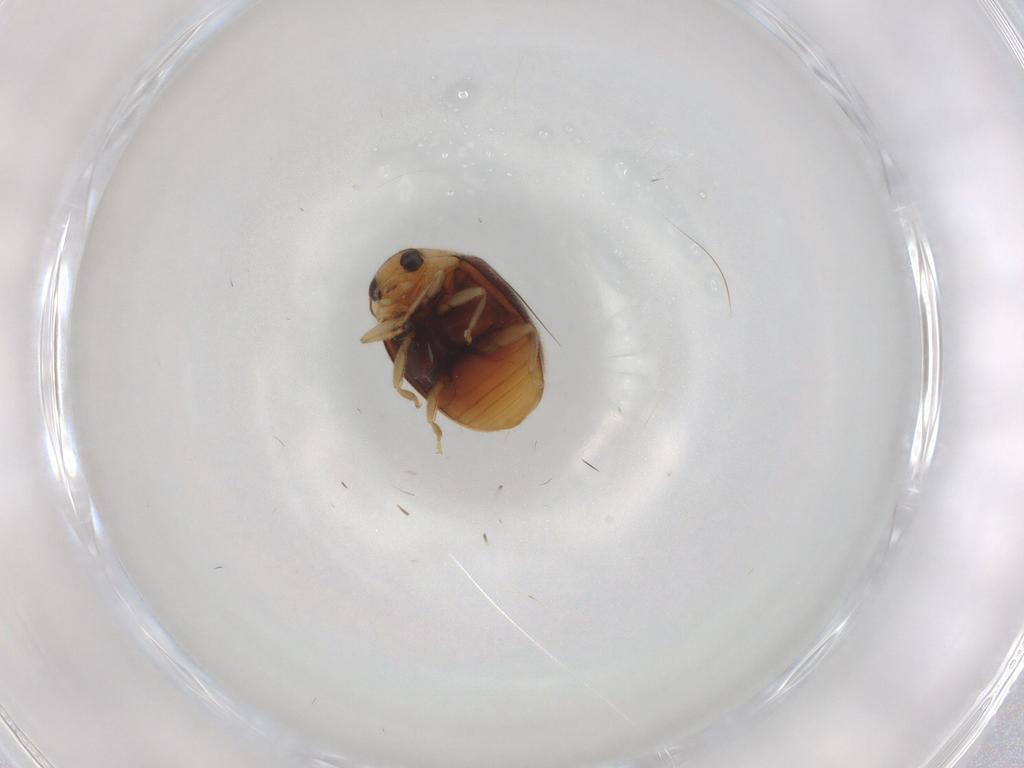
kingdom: Animalia
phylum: Arthropoda
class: Insecta
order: Coleoptera
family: Coccinellidae
